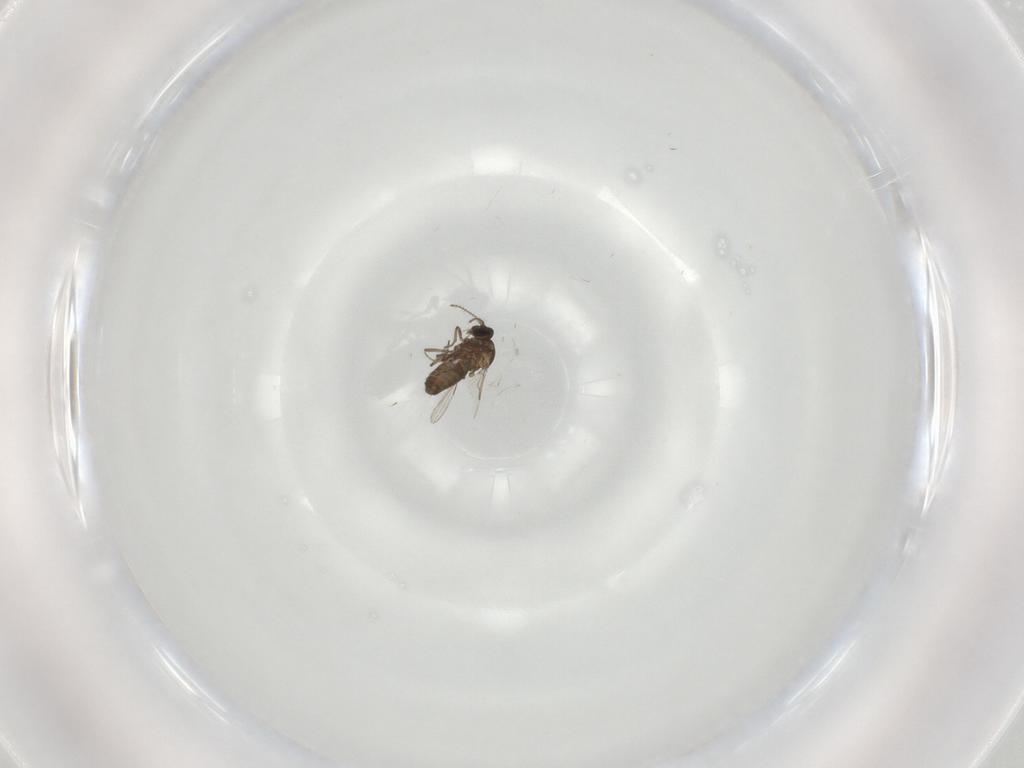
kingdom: Animalia
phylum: Arthropoda
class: Insecta
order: Diptera
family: Ceratopogonidae
